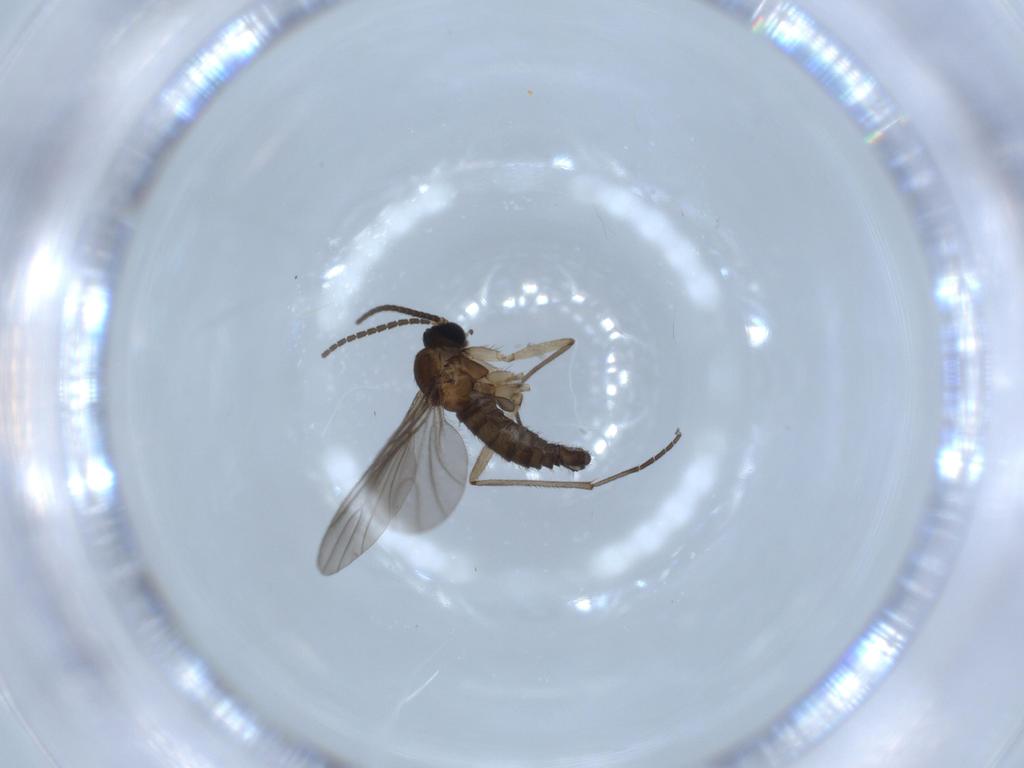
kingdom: Animalia
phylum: Arthropoda
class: Insecta
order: Diptera
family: Sciaridae
